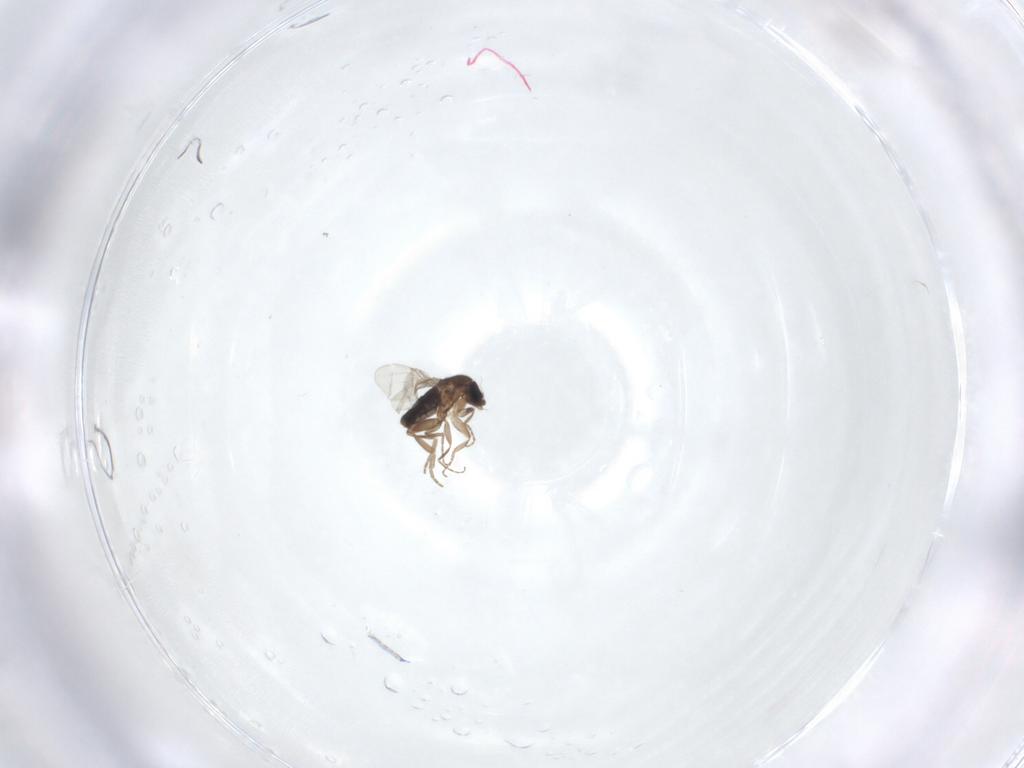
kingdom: Animalia
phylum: Arthropoda
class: Insecta
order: Diptera
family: Phoridae
